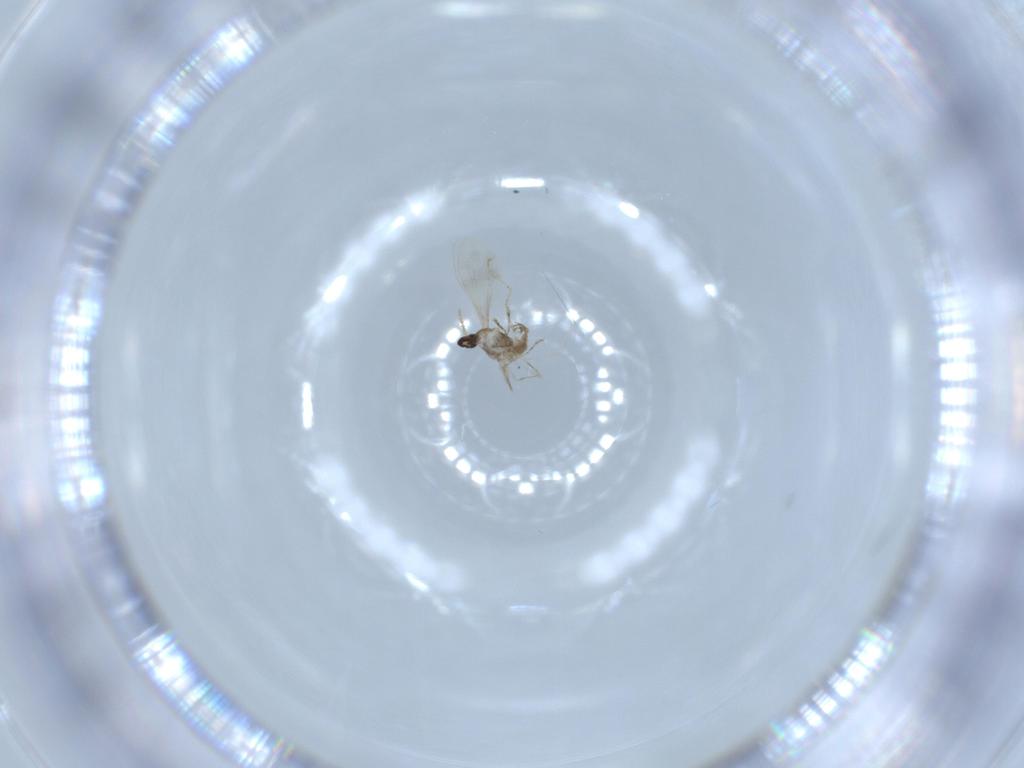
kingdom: Animalia
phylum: Arthropoda
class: Insecta
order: Diptera
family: Cecidomyiidae
